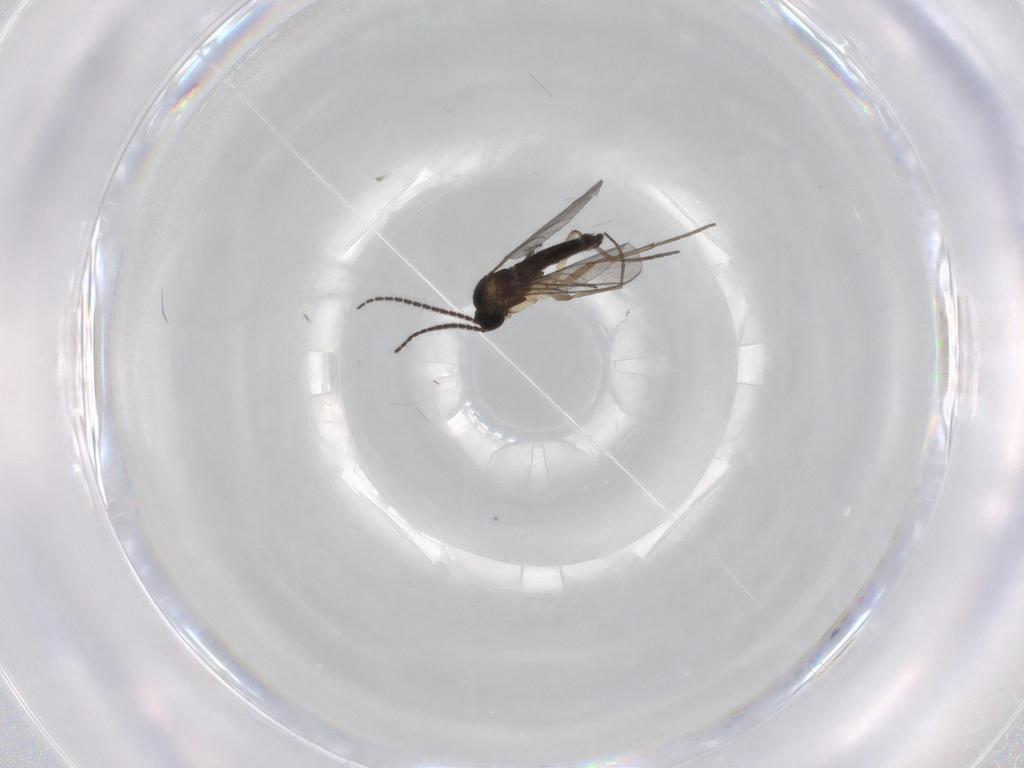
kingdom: Animalia
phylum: Arthropoda
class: Insecta
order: Diptera
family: Sciaridae
